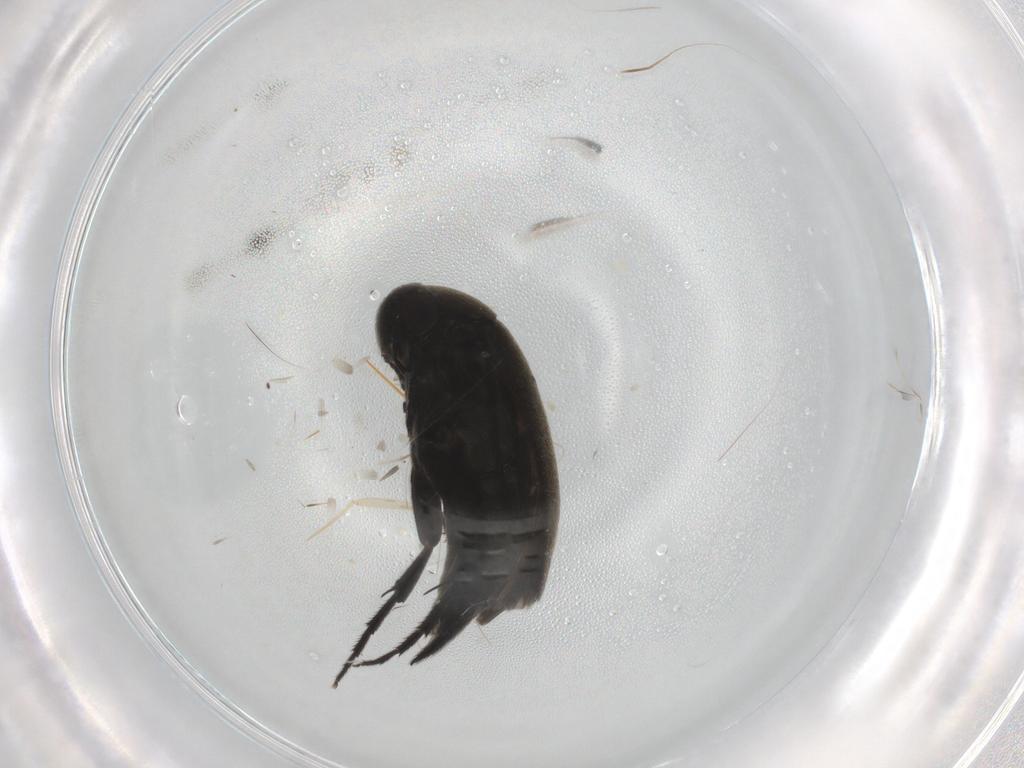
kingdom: Animalia
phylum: Arthropoda
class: Insecta
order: Coleoptera
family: Mordellidae
